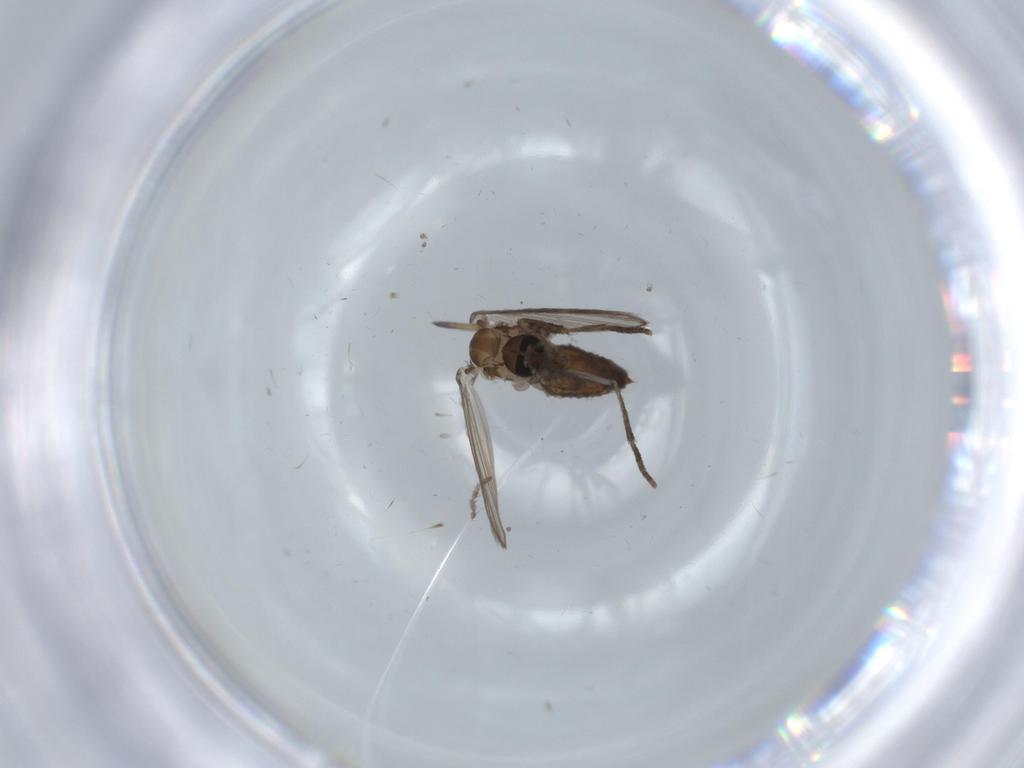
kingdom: Animalia
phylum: Arthropoda
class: Insecta
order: Diptera
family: Psychodidae
